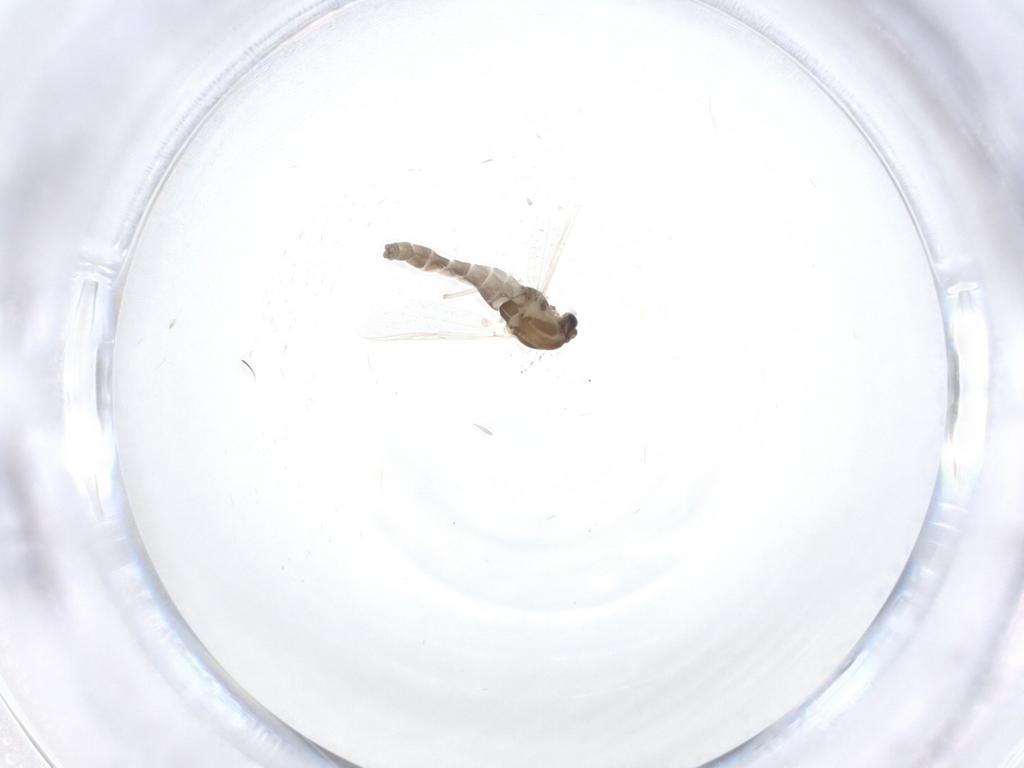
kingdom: Animalia
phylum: Arthropoda
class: Insecta
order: Diptera
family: Chironomidae
